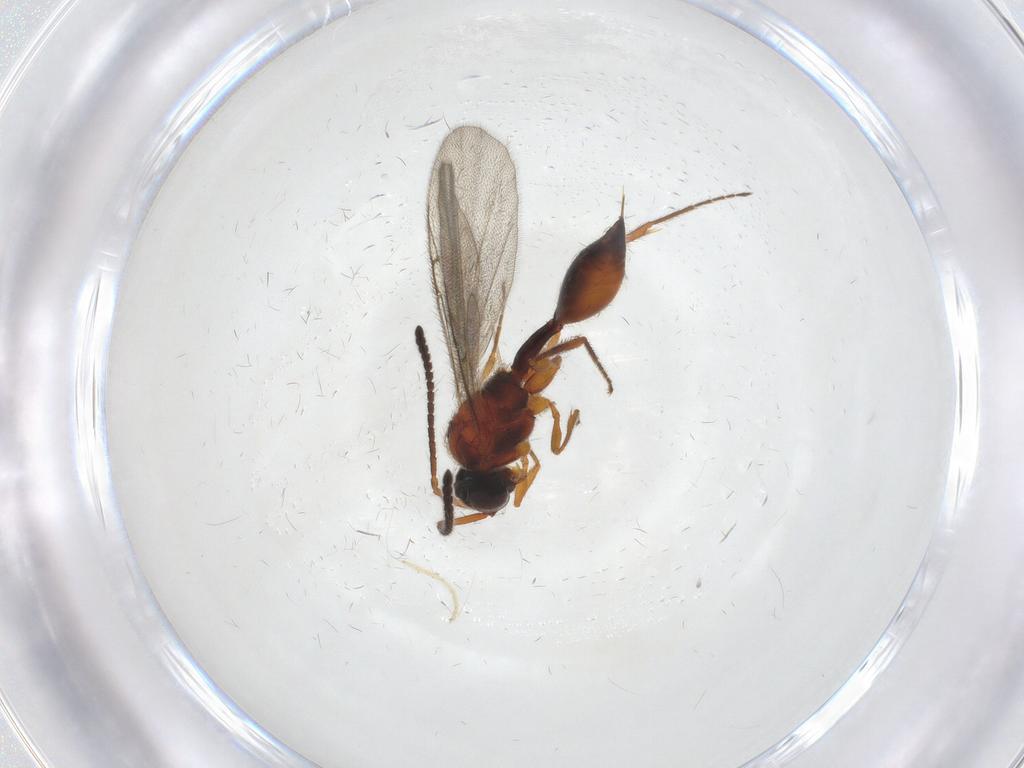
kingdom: Animalia
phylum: Arthropoda
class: Insecta
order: Hymenoptera
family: Diapriidae
